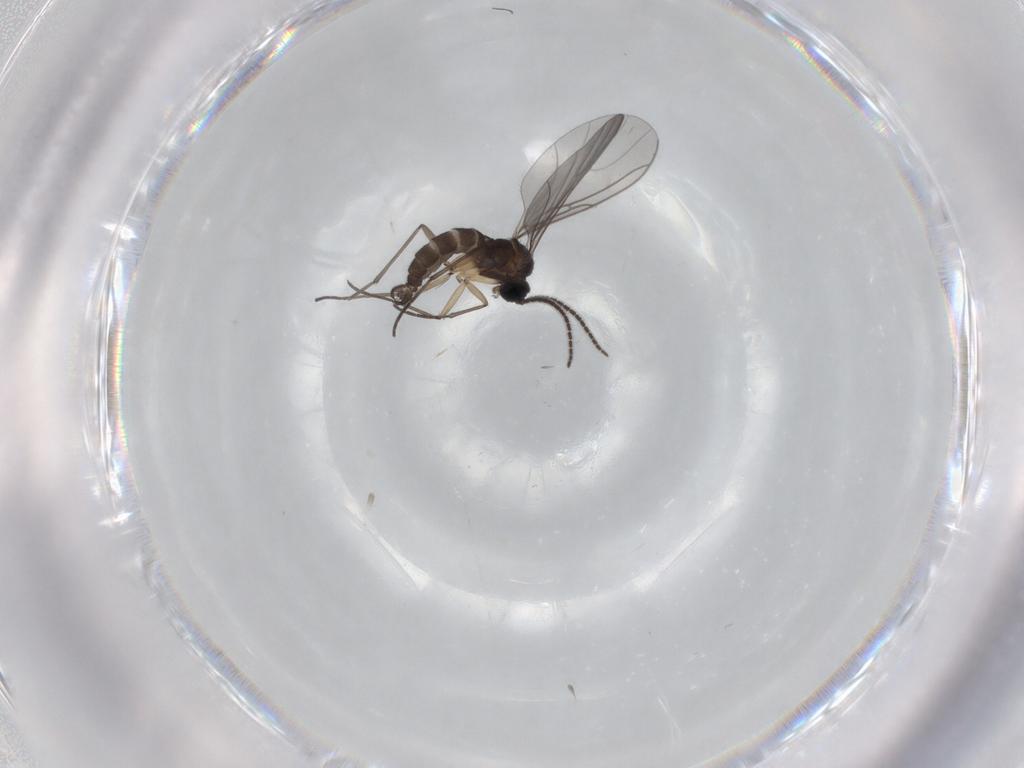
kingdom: Animalia
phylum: Arthropoda
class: Insecta
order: Diptera
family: Sciaridae
